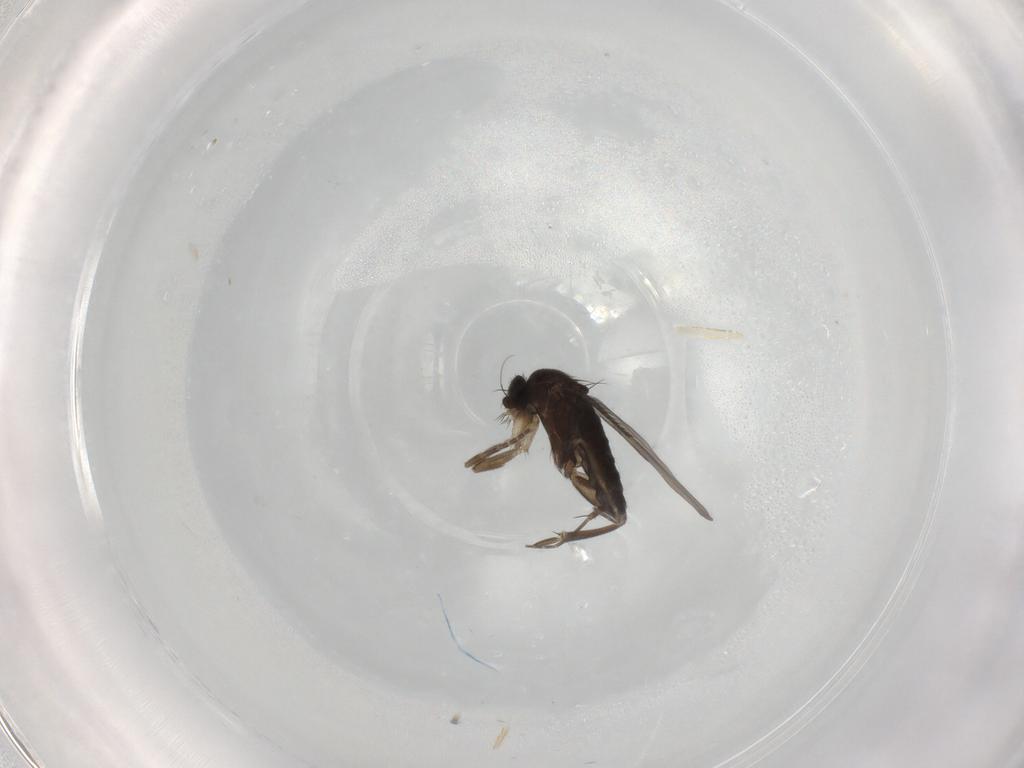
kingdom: Animalia
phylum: Arthropoda
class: Insecta
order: Diptera
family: Phoridae
